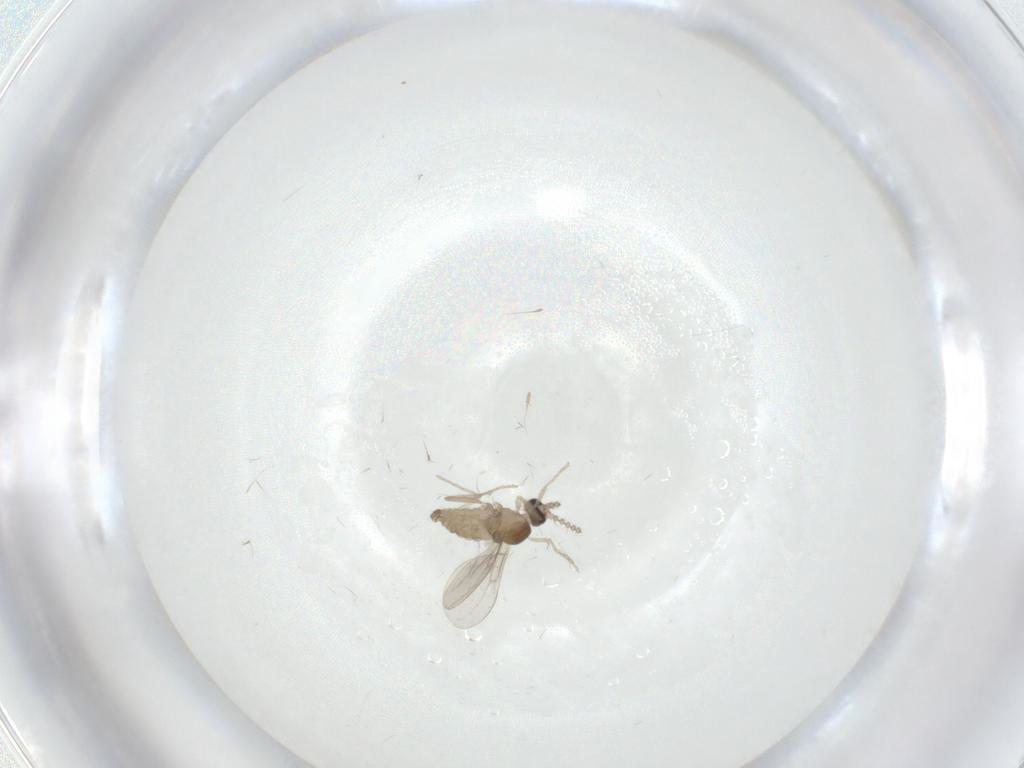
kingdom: Animalia
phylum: Arthropoda
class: Insecta
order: Diptera
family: Cecidomyiidae
